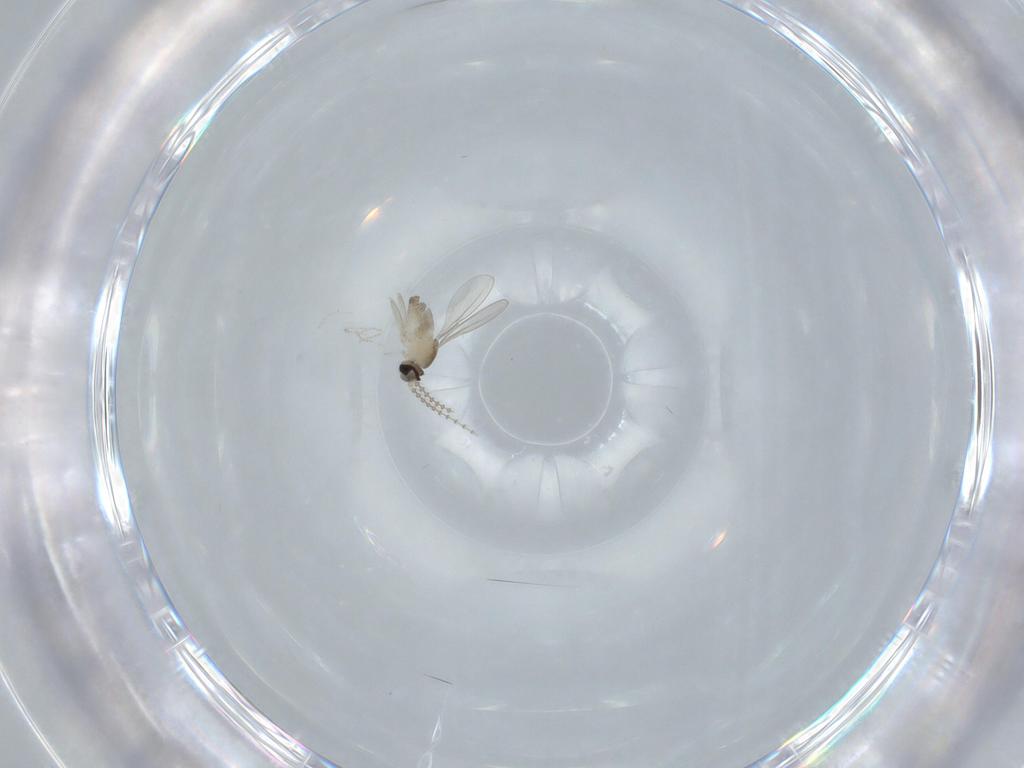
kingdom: Animalia
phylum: Arthropoda
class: Insecta
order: Diptera
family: Cecidomyiidae
